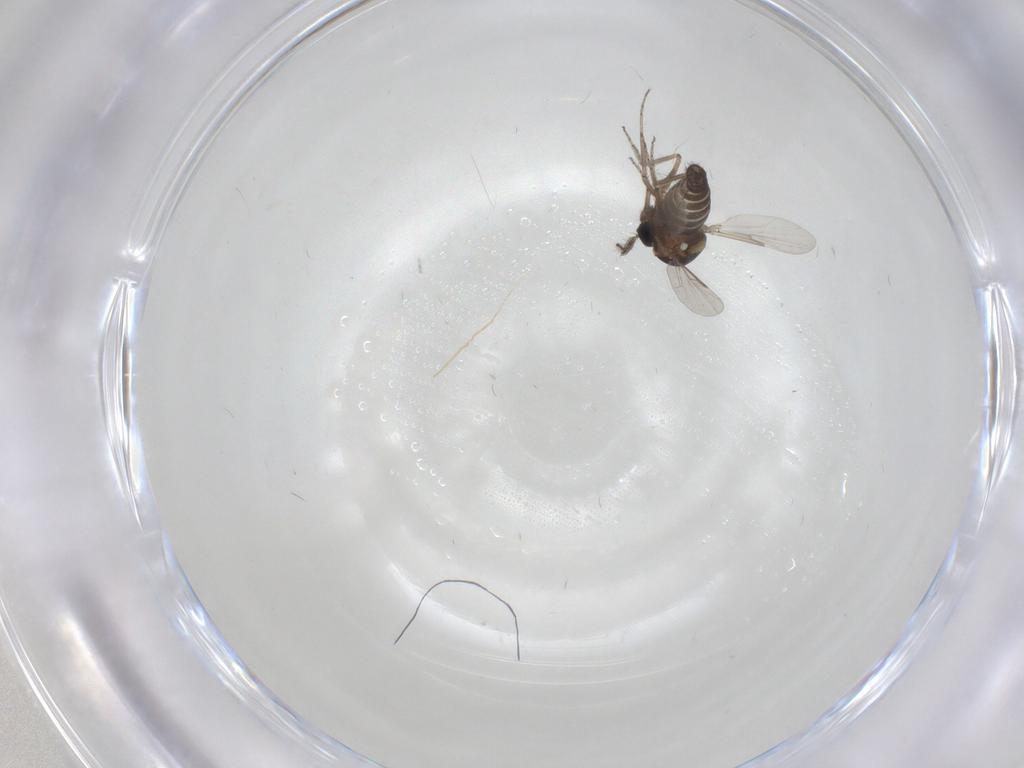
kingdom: Animalia
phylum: Arthropoda
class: Insecta
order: Diptera
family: Ceratopogonidae
